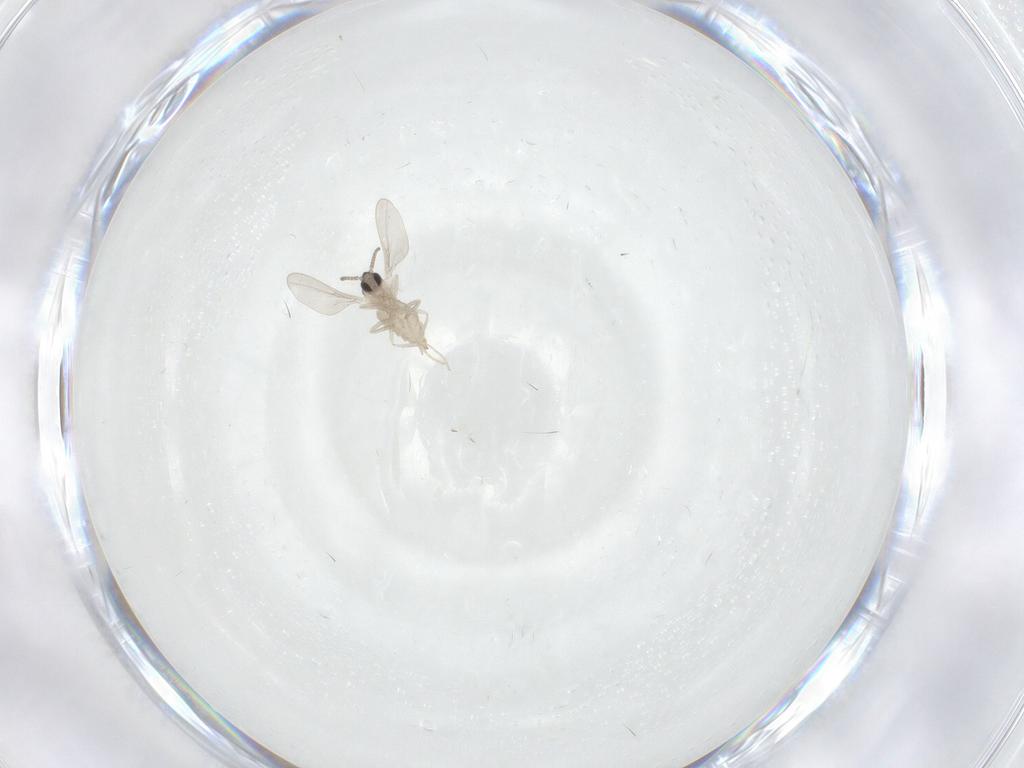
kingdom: Animalia
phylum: Arthropoda
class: Insecta
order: Diptera
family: Cecidomyiidae
